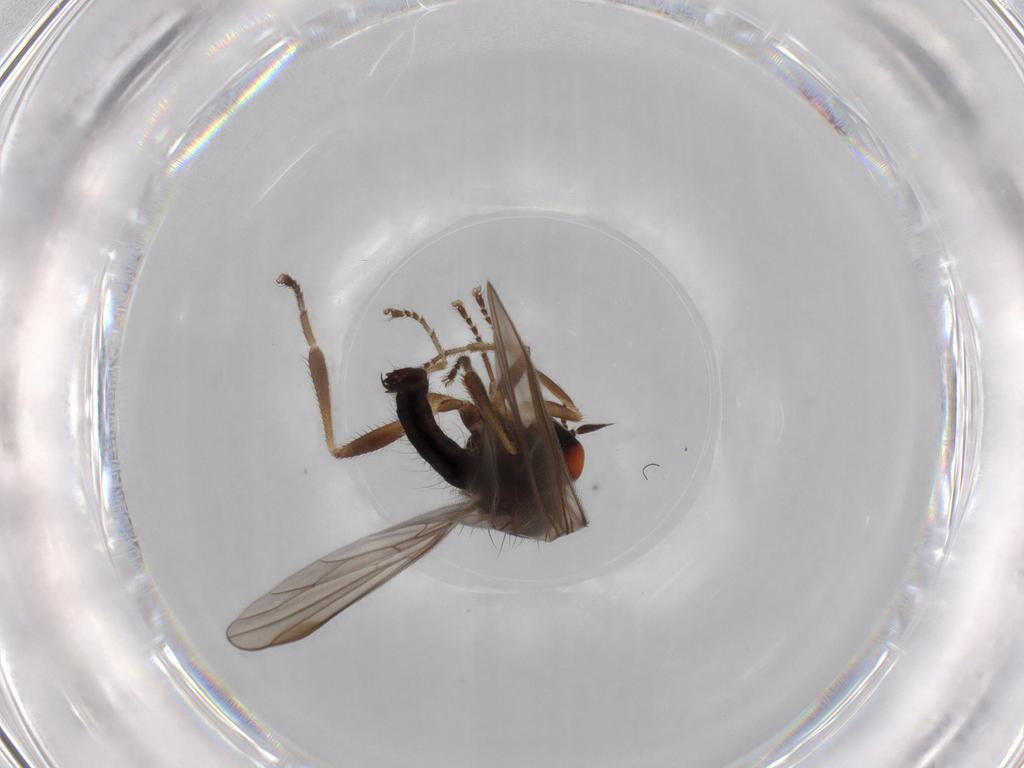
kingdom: Animalia
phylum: Arthropoda
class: Insecta
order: Diptera
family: Hybotidae
